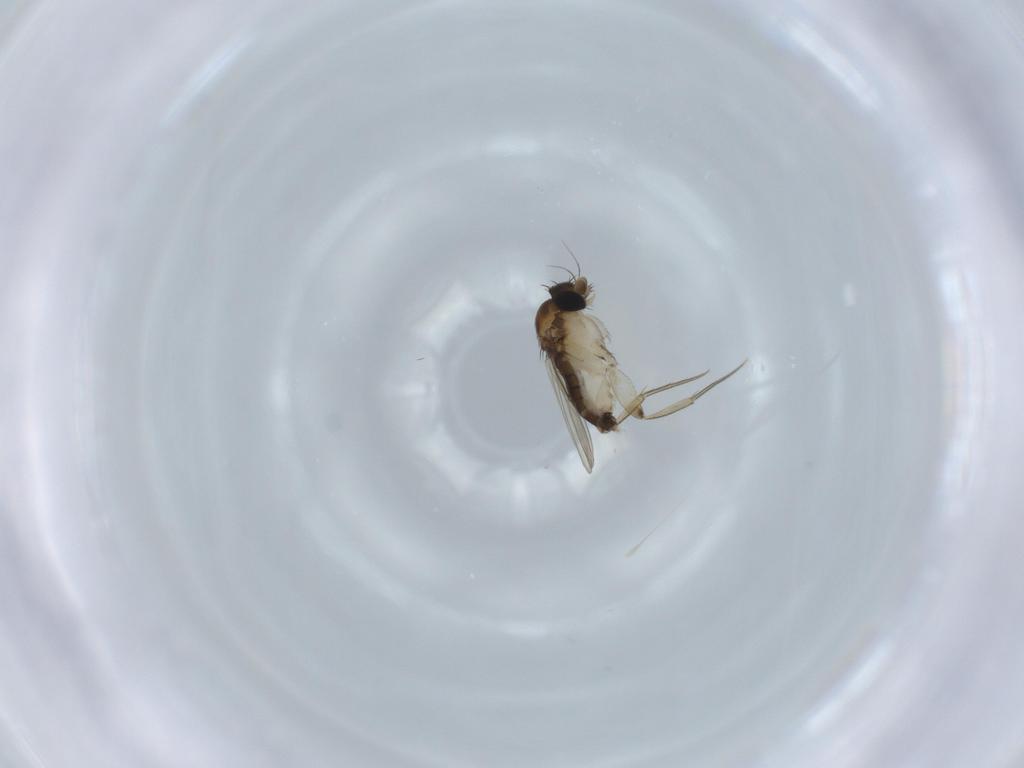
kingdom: Animalia
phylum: Arthropoda
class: Insecta
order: Diptera
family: Phoridae
